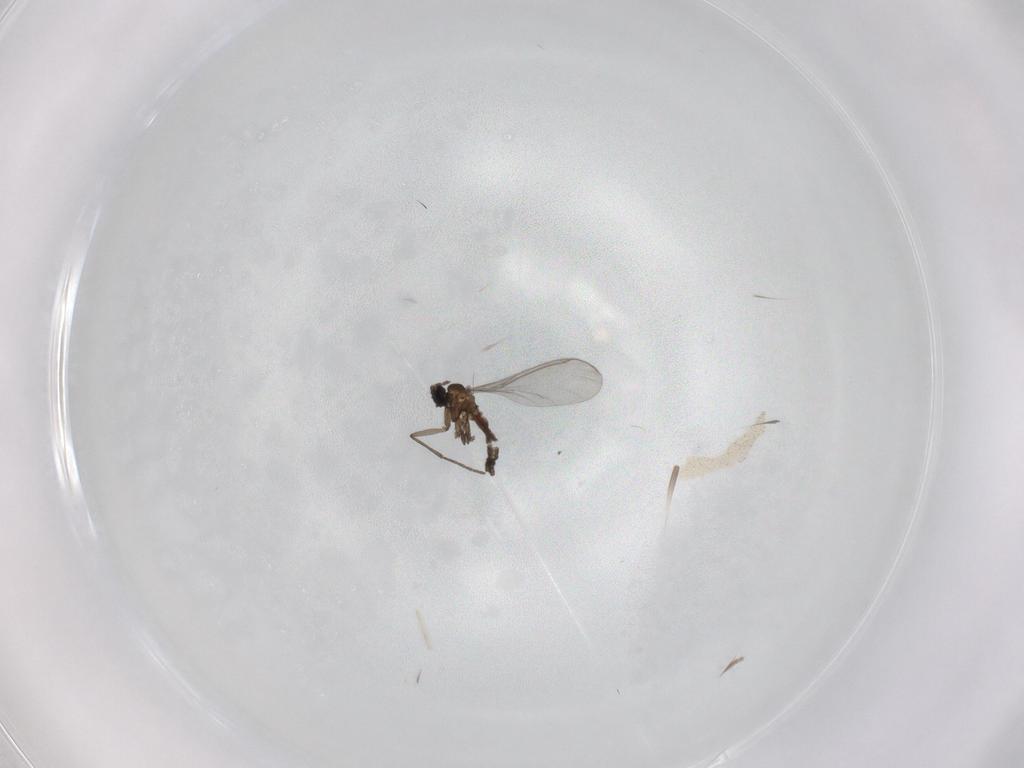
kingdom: Animalia
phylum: Arthropoda
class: Insecta
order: Diptera
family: Sciaridae
